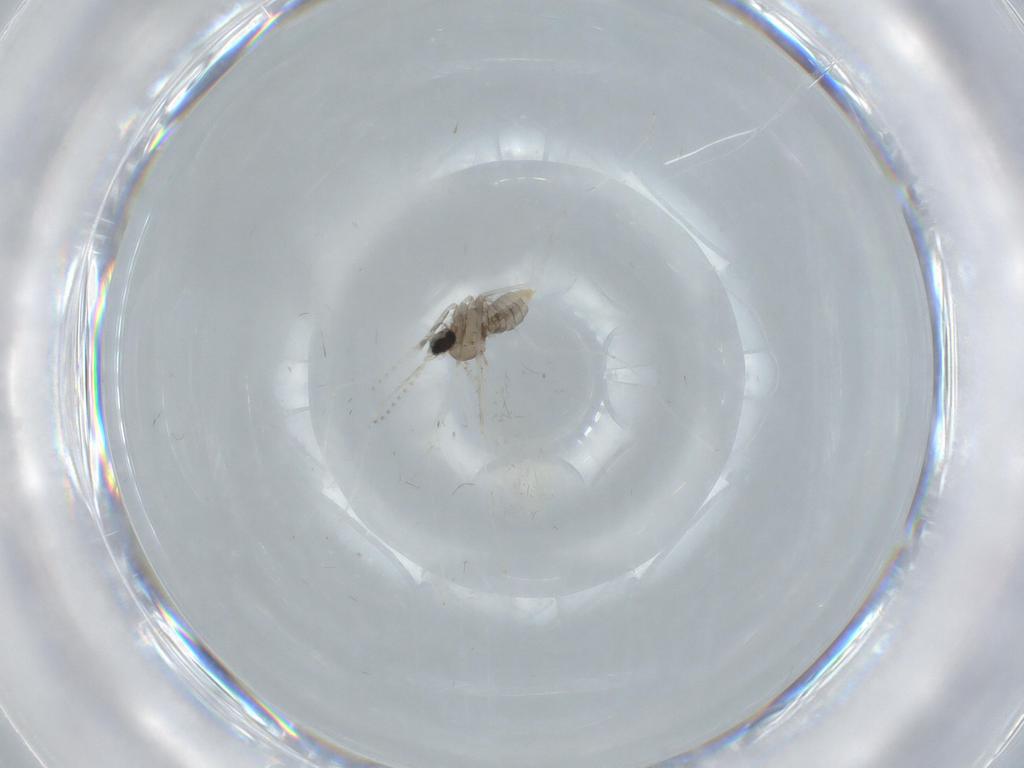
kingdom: Animalia
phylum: Arthropoda
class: Insecta
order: Diptera
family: Cecidomyiidae
